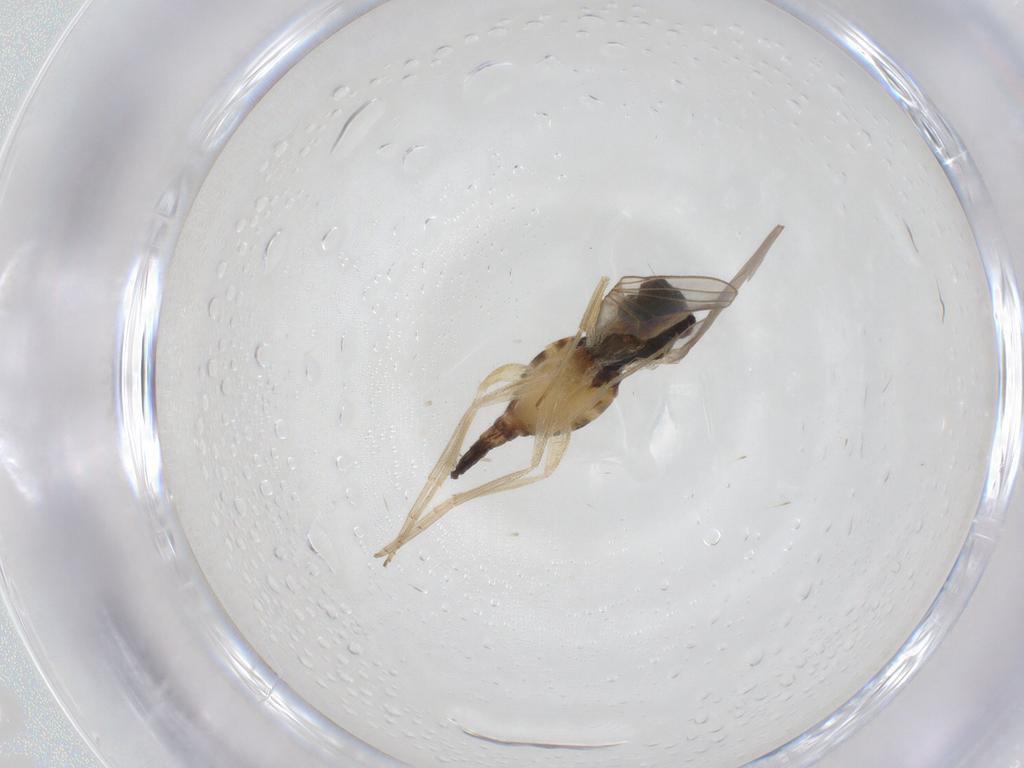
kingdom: Animalia
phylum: Arthropoda
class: Insecta
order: Diptera
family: Dolichopodidae
